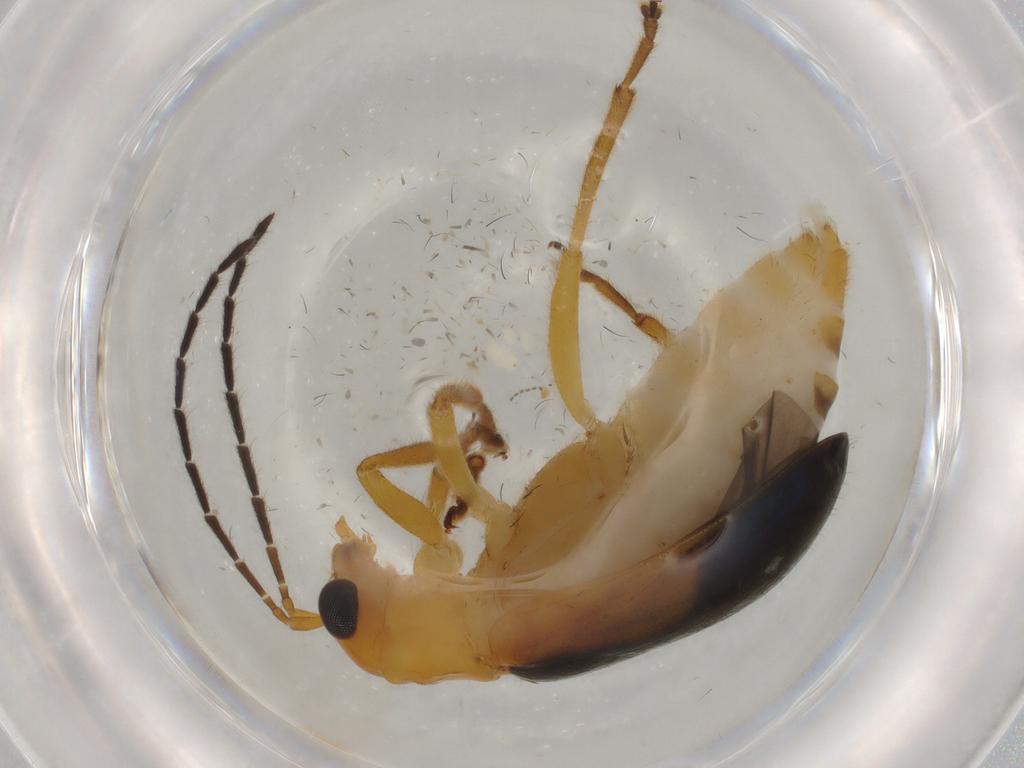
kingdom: Animalia
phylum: Arthropoda
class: Insecta
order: Coleoptera
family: Chrysomelidae
